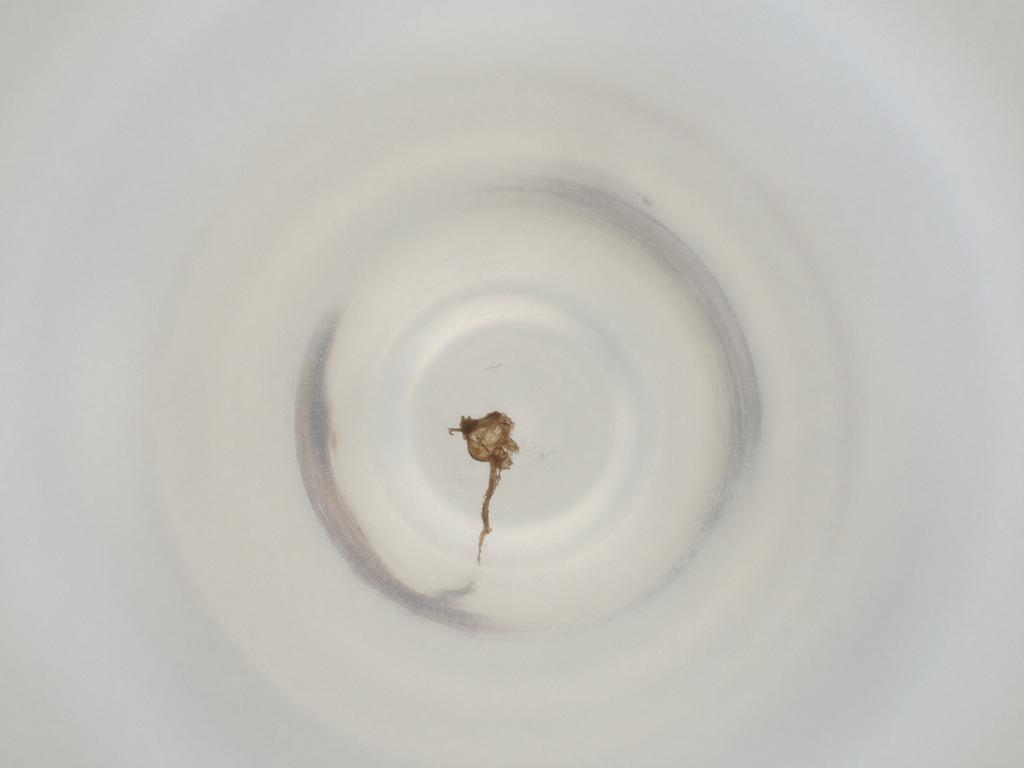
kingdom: Animalia
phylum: Arthropoda
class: Insecta
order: Diptera
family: Cecidomyiidae
